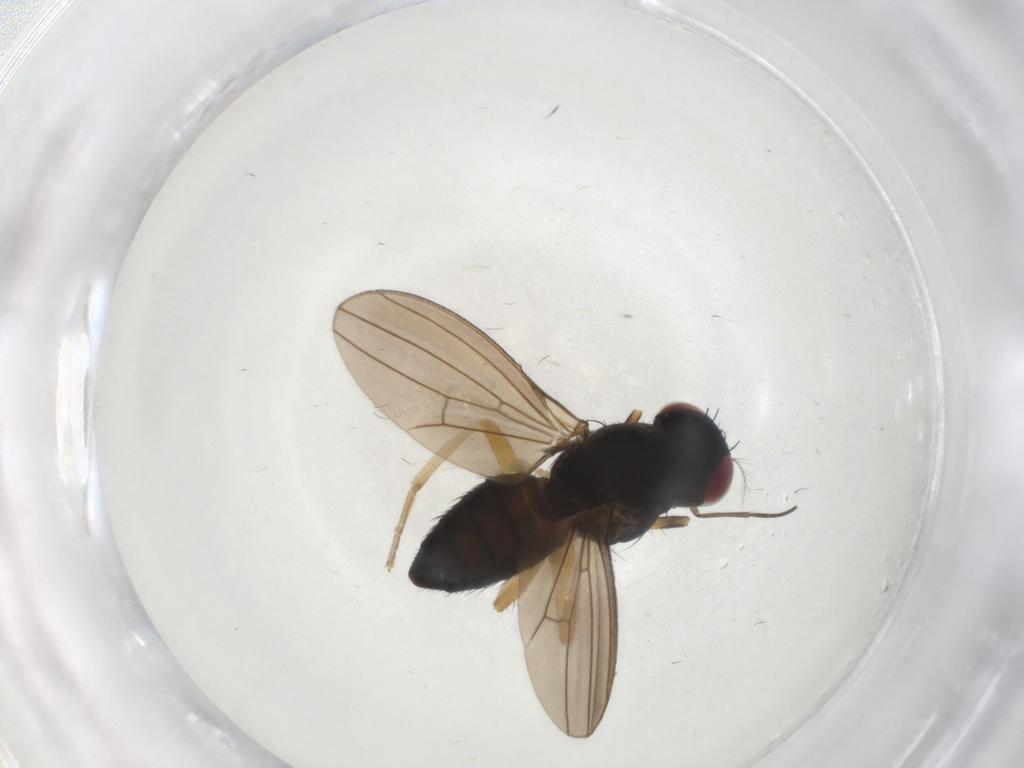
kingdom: Animalia
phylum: Arthropoda
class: Insecta
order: Diptera
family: Lauxaniidae
